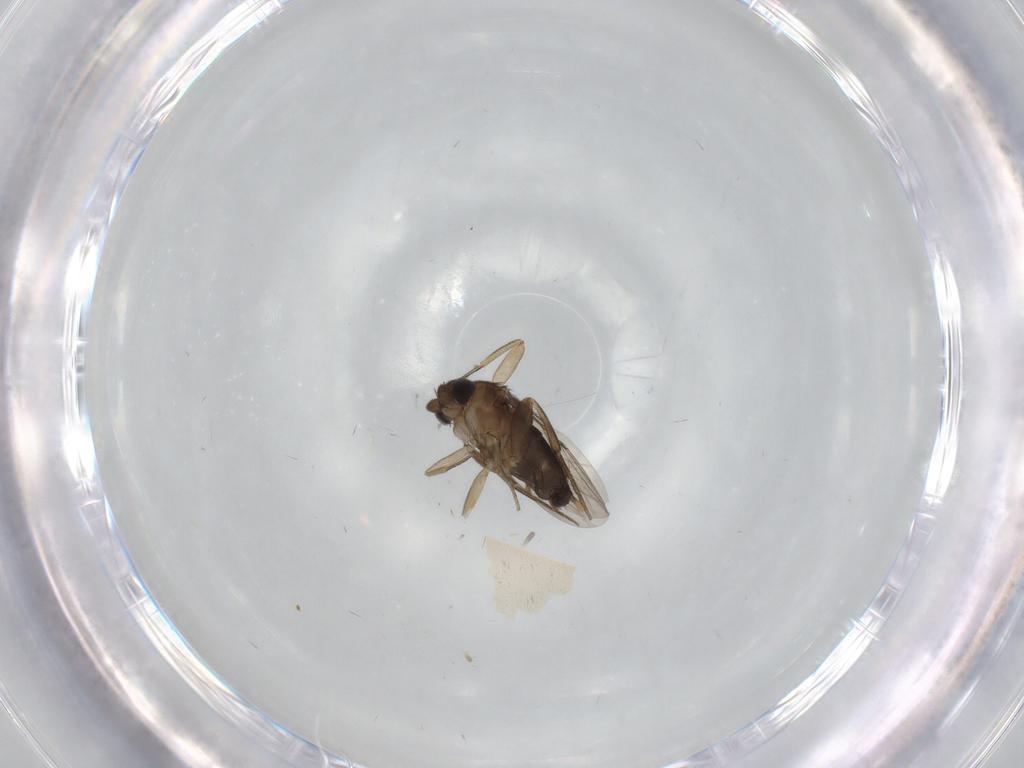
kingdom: Animalia
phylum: Arthropoda
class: Insecta
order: Diptera
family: Phoridae
